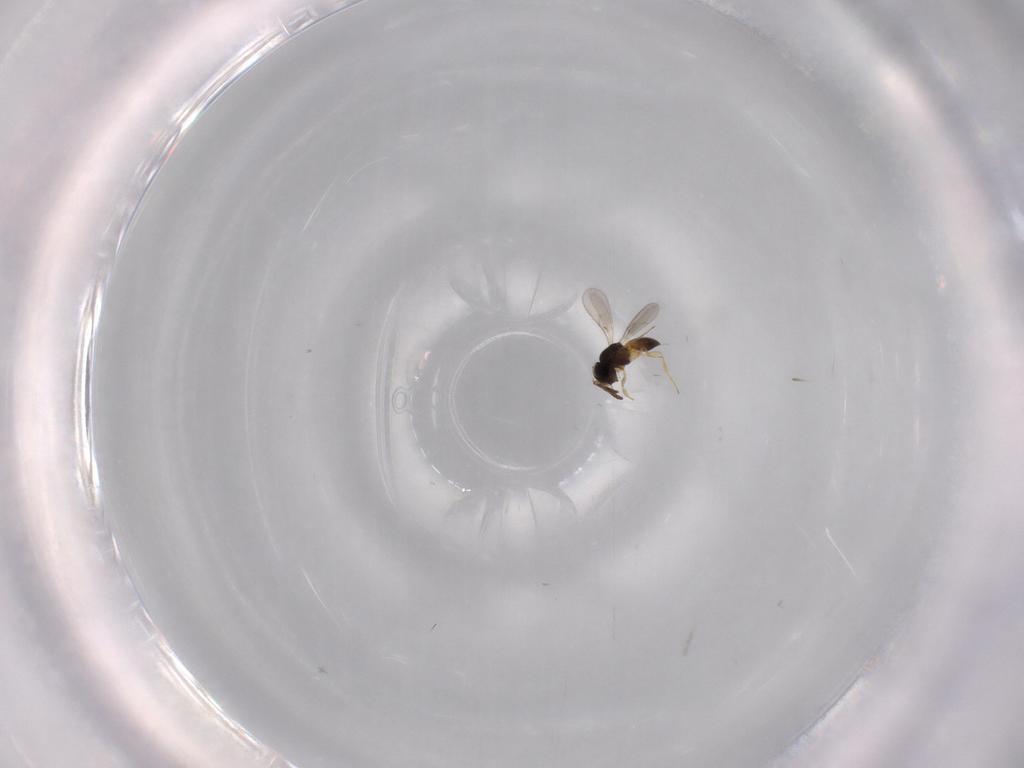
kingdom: Animalia
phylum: Arthropoda
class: Insecta
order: Hymenoptera
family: Scelionidae
